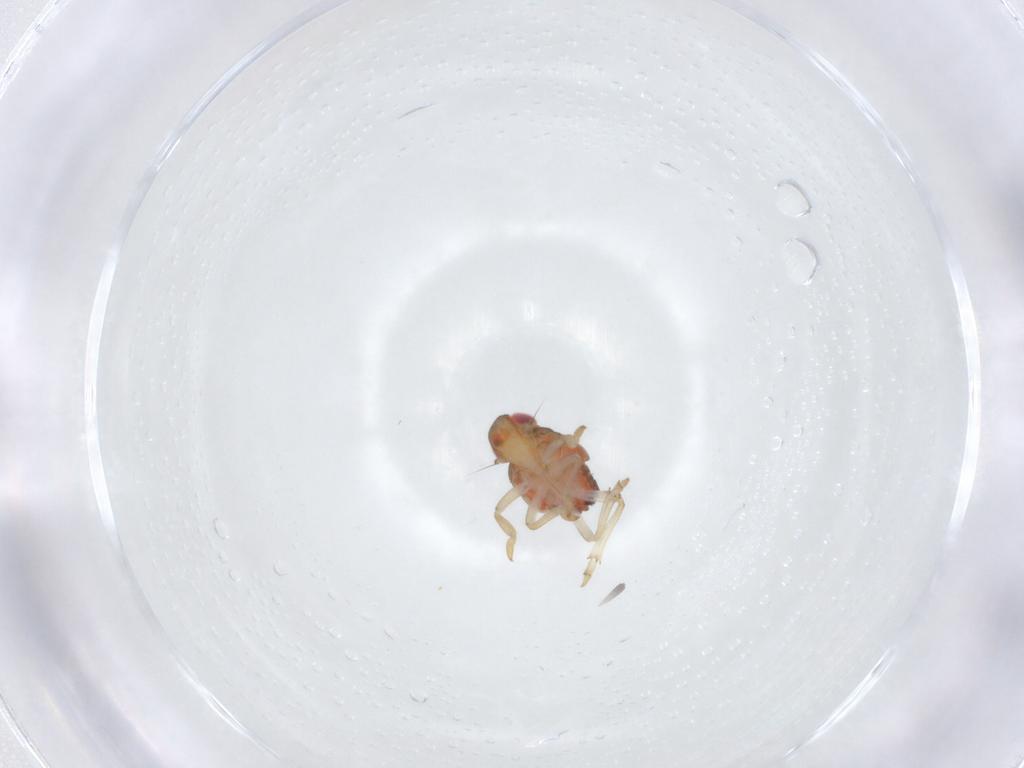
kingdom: Animalia
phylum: Arthropoda
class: Insecta
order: Hemiptera
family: Issidae
